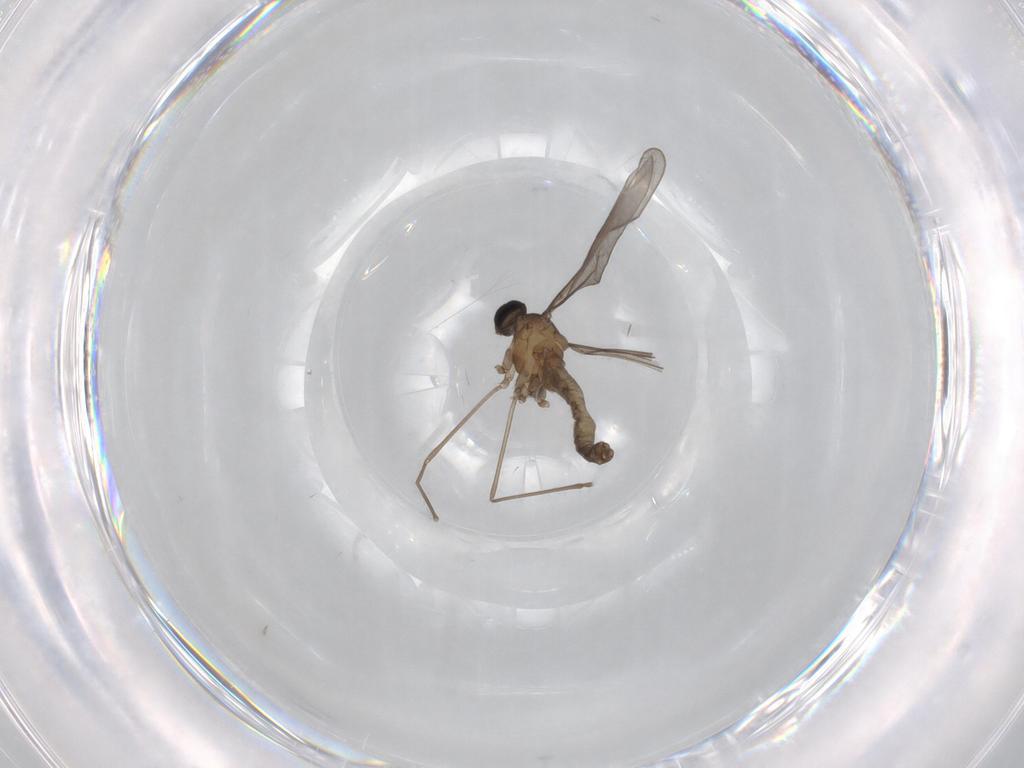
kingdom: Animalia
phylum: Arthropoda
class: Insecta
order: Diptera
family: Cecidomyiidae
